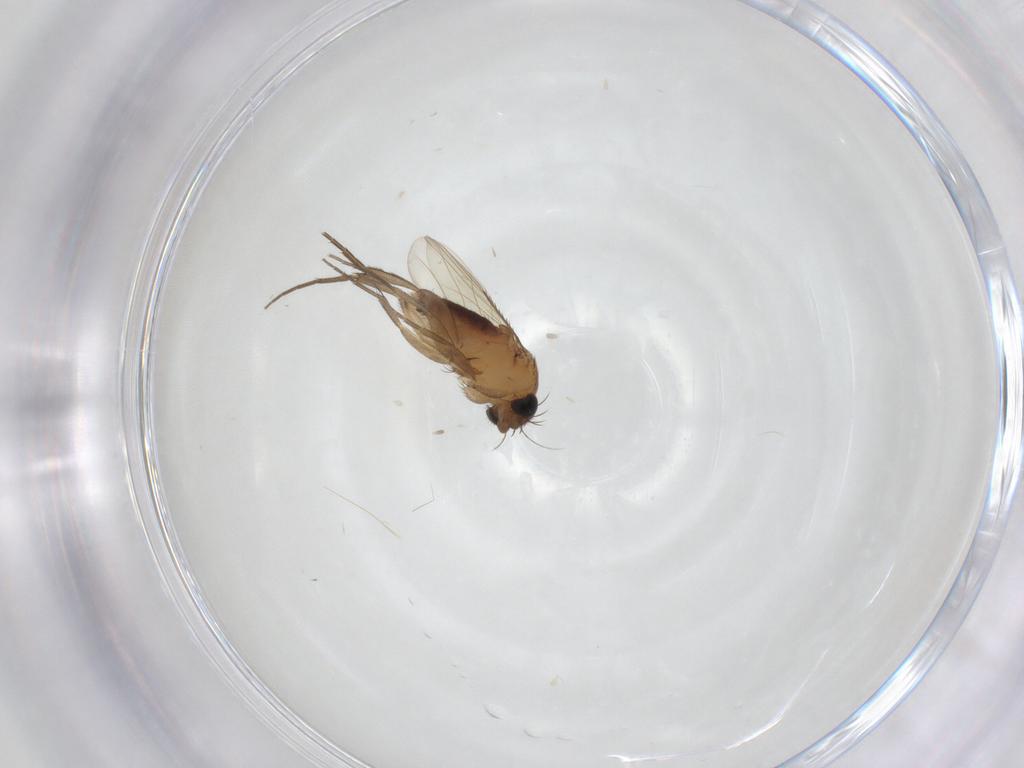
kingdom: Animalia
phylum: Arthropoda
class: Insecta
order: Diptera
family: Phoridae
